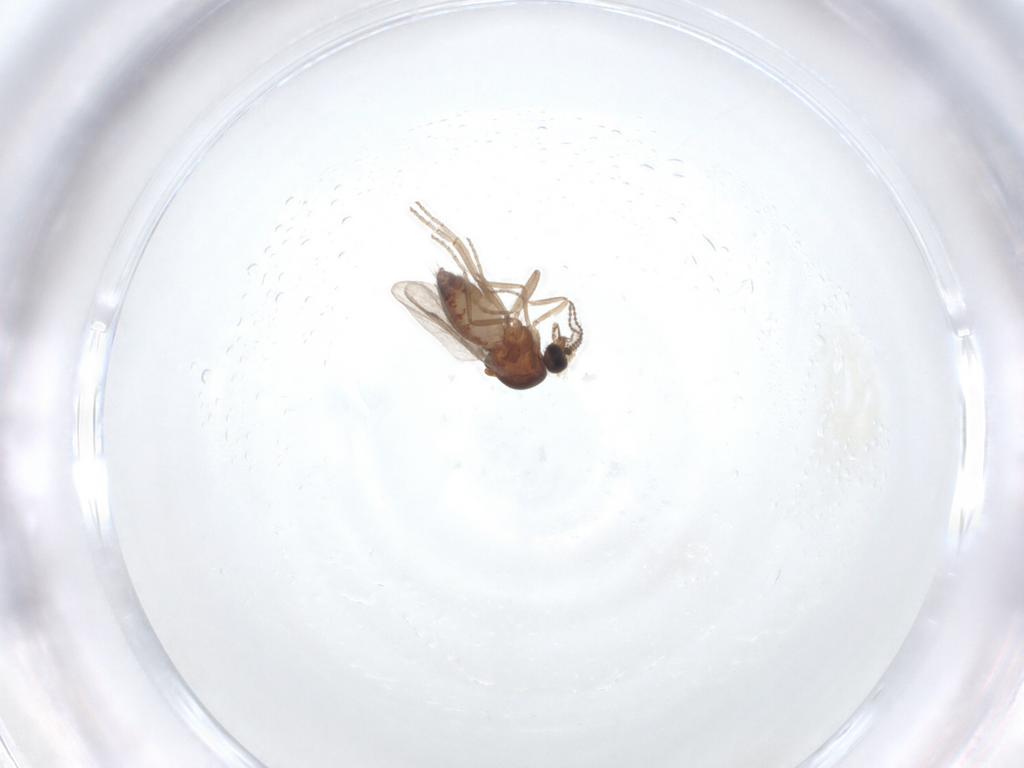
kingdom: Animalia
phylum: Arthropoda
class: Insecta
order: Diptera
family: Ceratopogonidae
